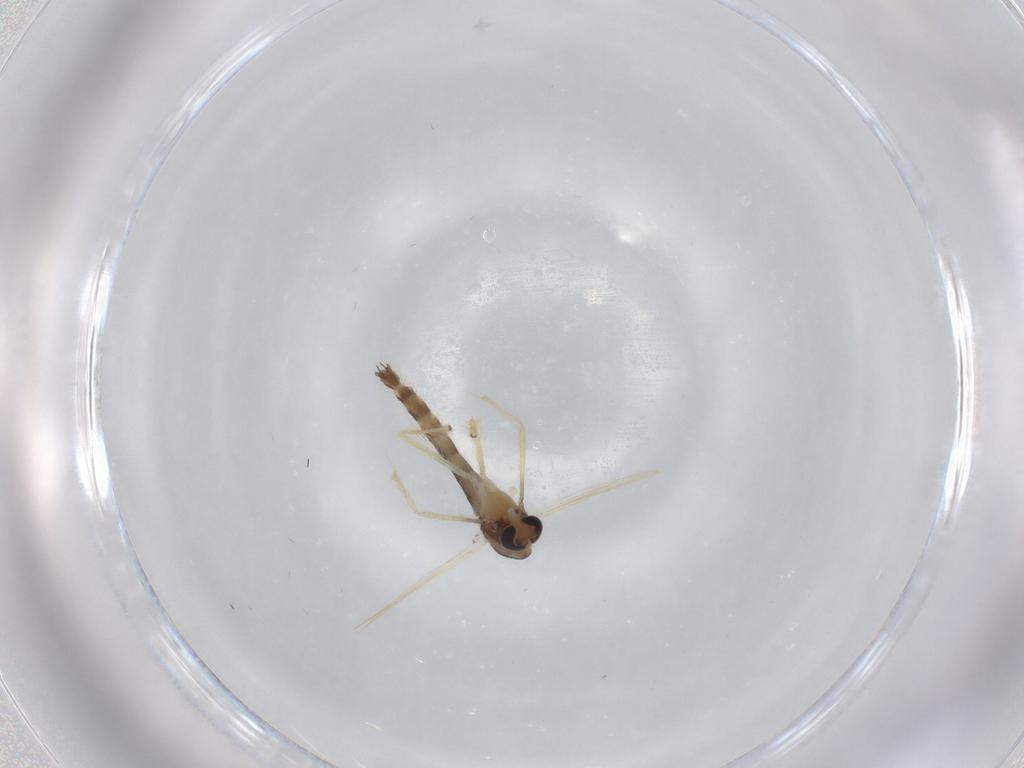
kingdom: Animalia
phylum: Arthropoda
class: Insecta
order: Diptera
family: Chironomidae
